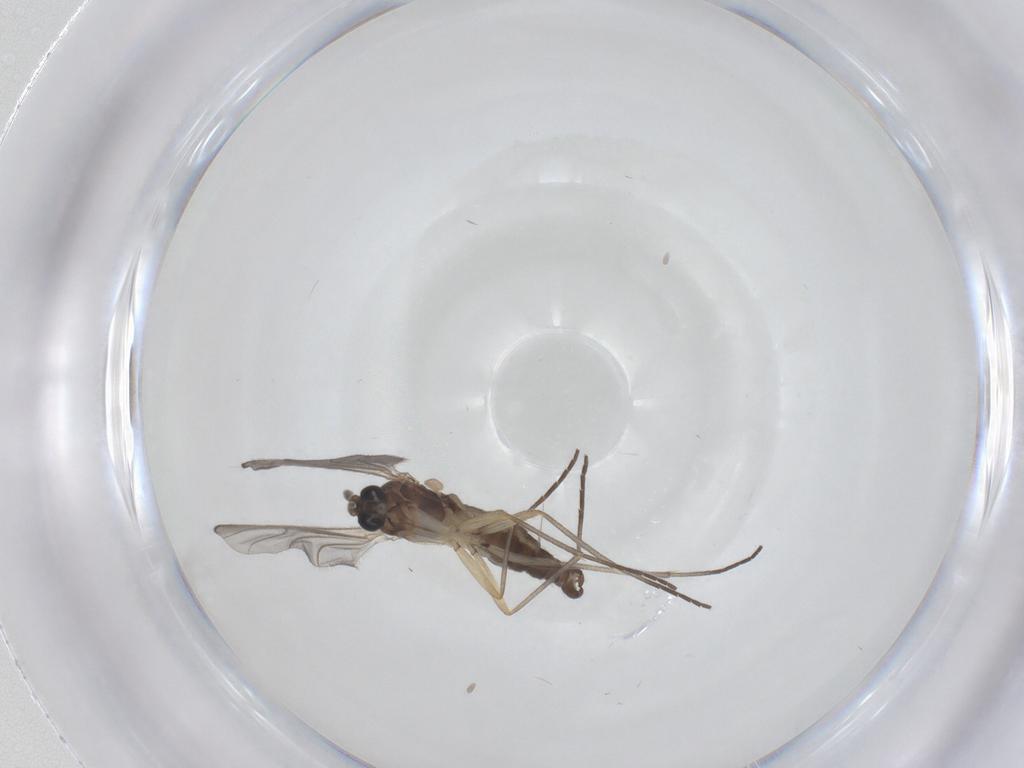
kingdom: Animalia
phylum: Arthropoda
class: Insecta
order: Diptera
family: Sciaridae
